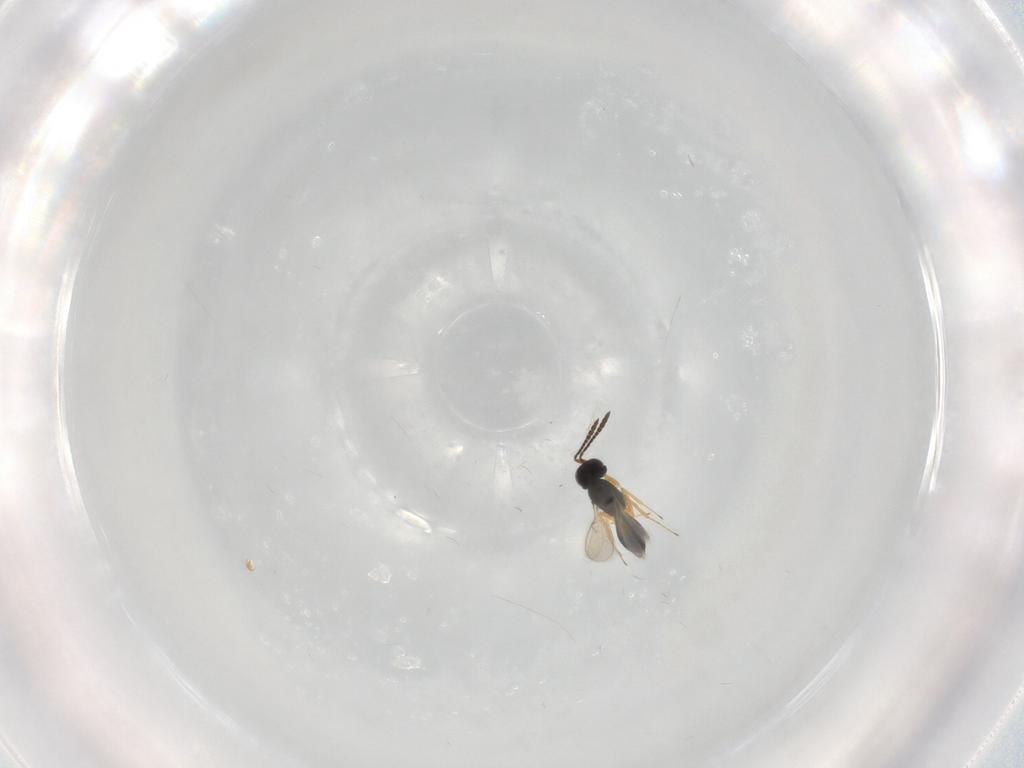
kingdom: Animalia
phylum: Arthropoda
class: Insecta
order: Hymenoptera
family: Scelionidae
